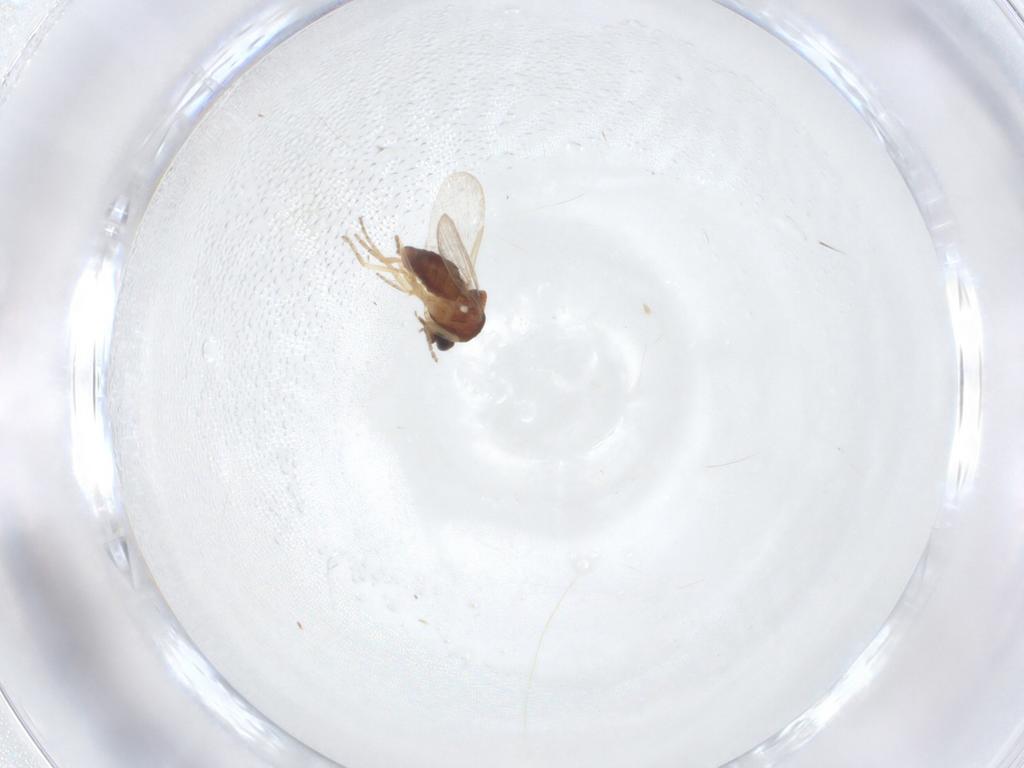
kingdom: Animalia
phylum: Arthropoda
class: Insecta
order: Diptera
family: Ceratopogonidae
